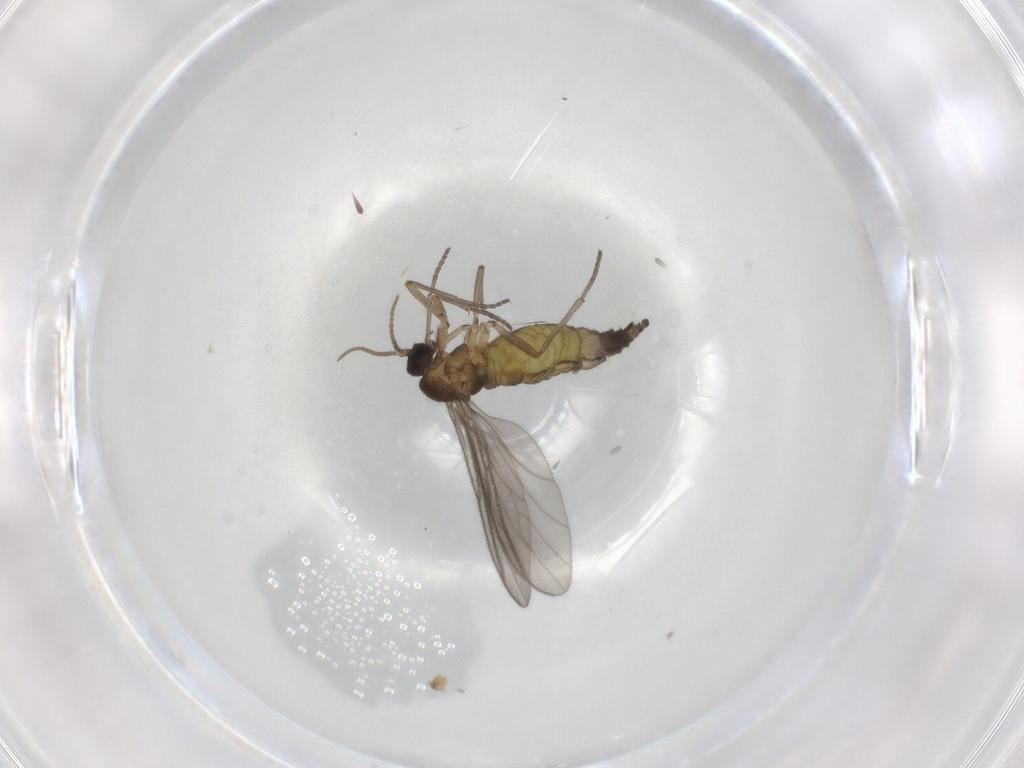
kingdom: Animalia
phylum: Arthropoda
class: Insecta
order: Diptera
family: Sciaridae
